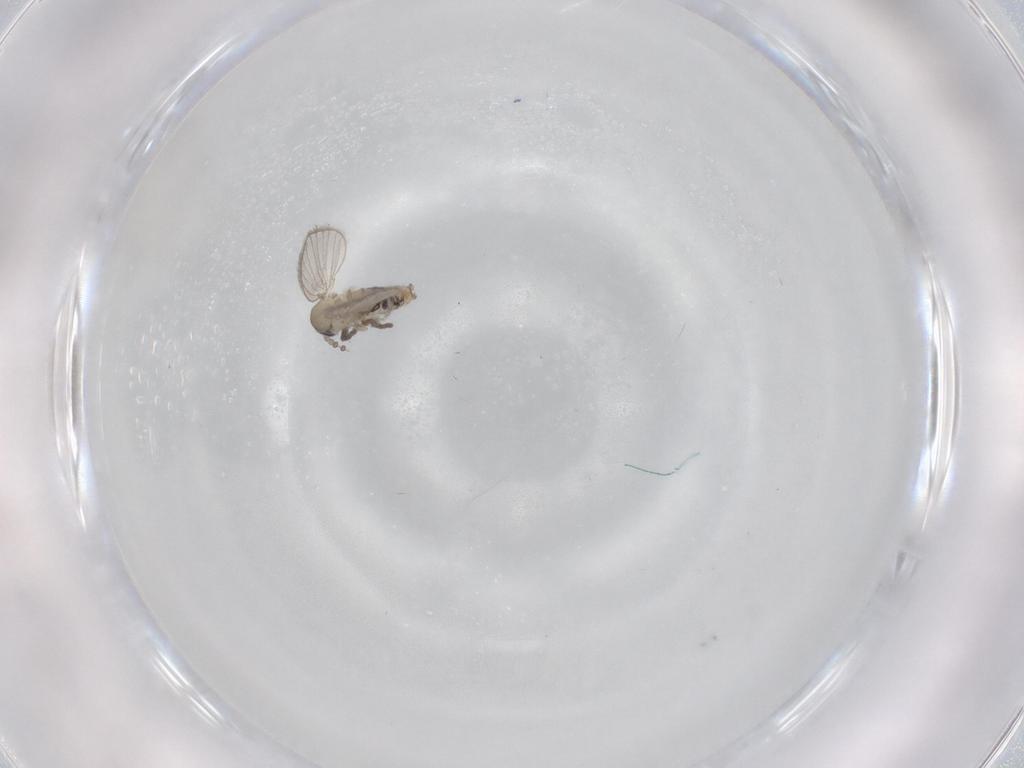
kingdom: Animalia
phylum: Arthropoda
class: Insecta
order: Diptera
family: Psychodidae
